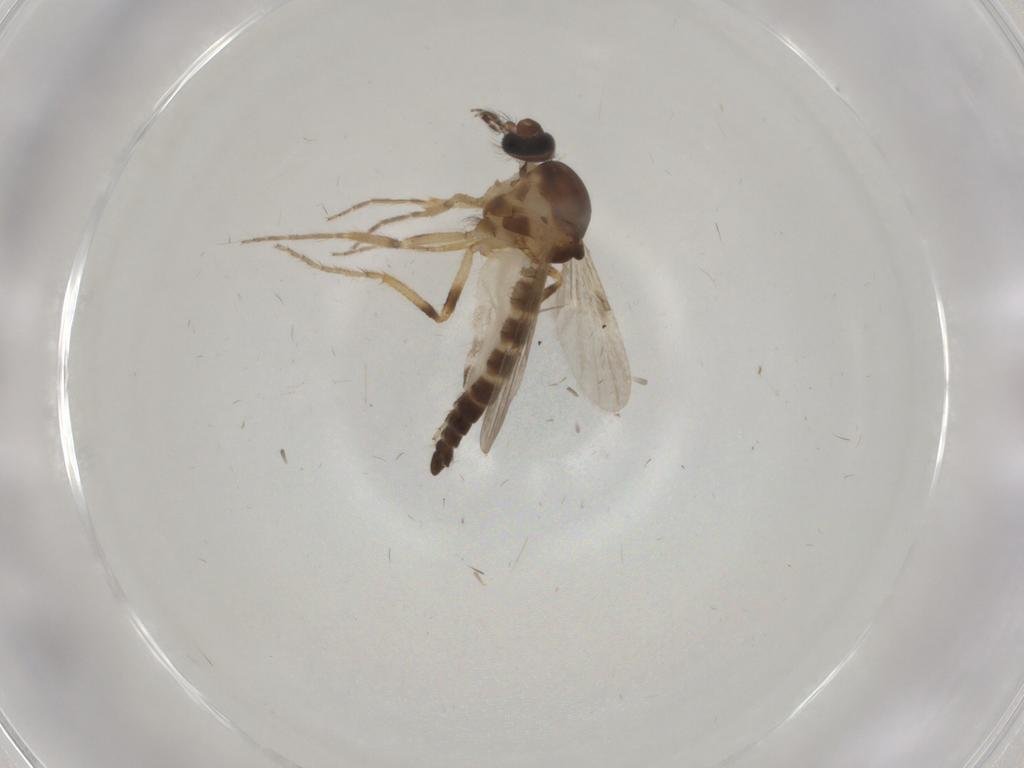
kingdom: Animalia
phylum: Arthropoda
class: Insecta
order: Diptera
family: Ceratopogonidae
